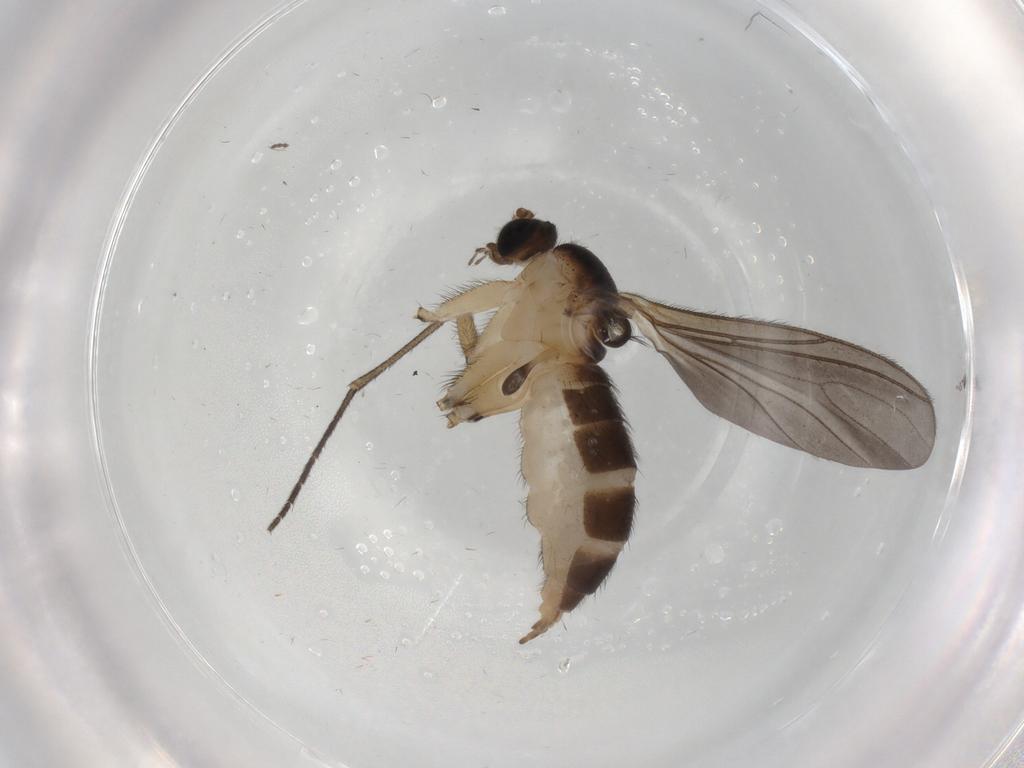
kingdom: Animalia
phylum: Arthropoda
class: Insecta
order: Diptera
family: Sciaridae
